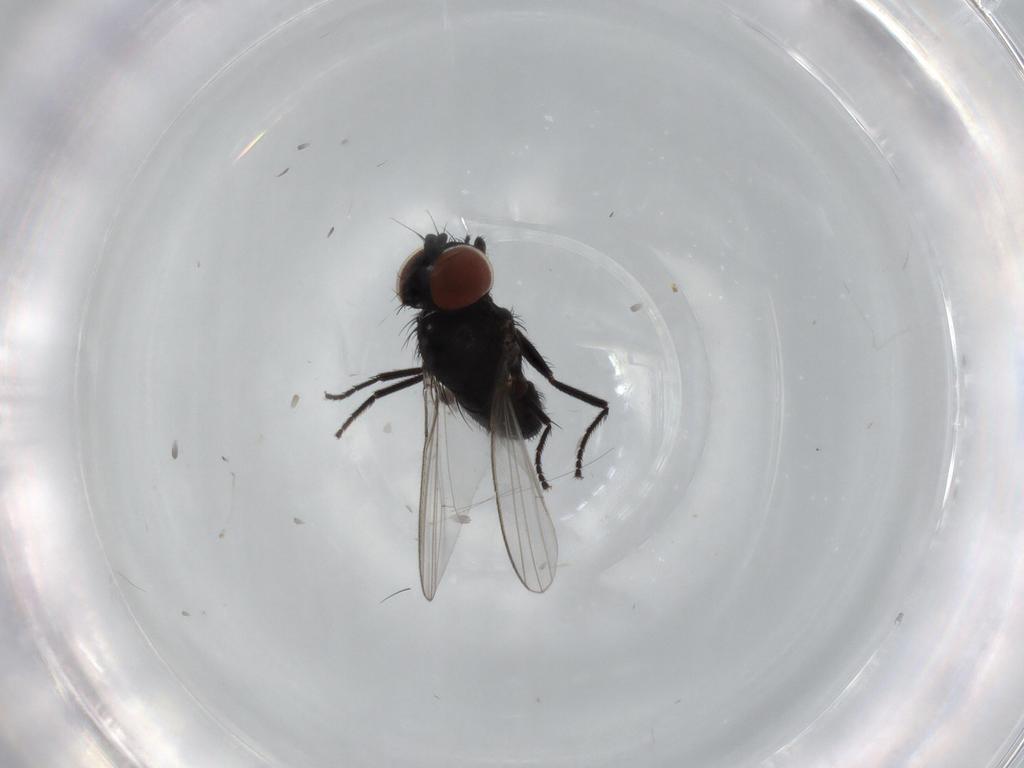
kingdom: Animalia
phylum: Arthropoda
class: Insecta
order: Diptera
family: Milichiidae
